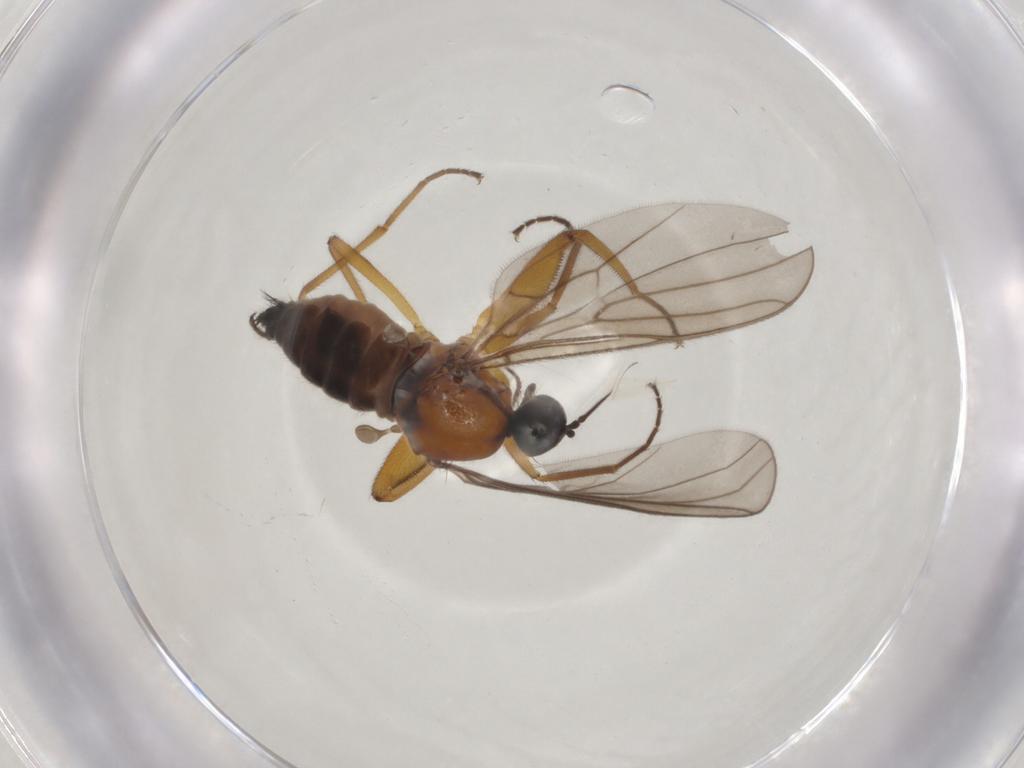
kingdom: Animalia
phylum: Arthropoda
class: Insecta
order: Diptera
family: Hybotidae
